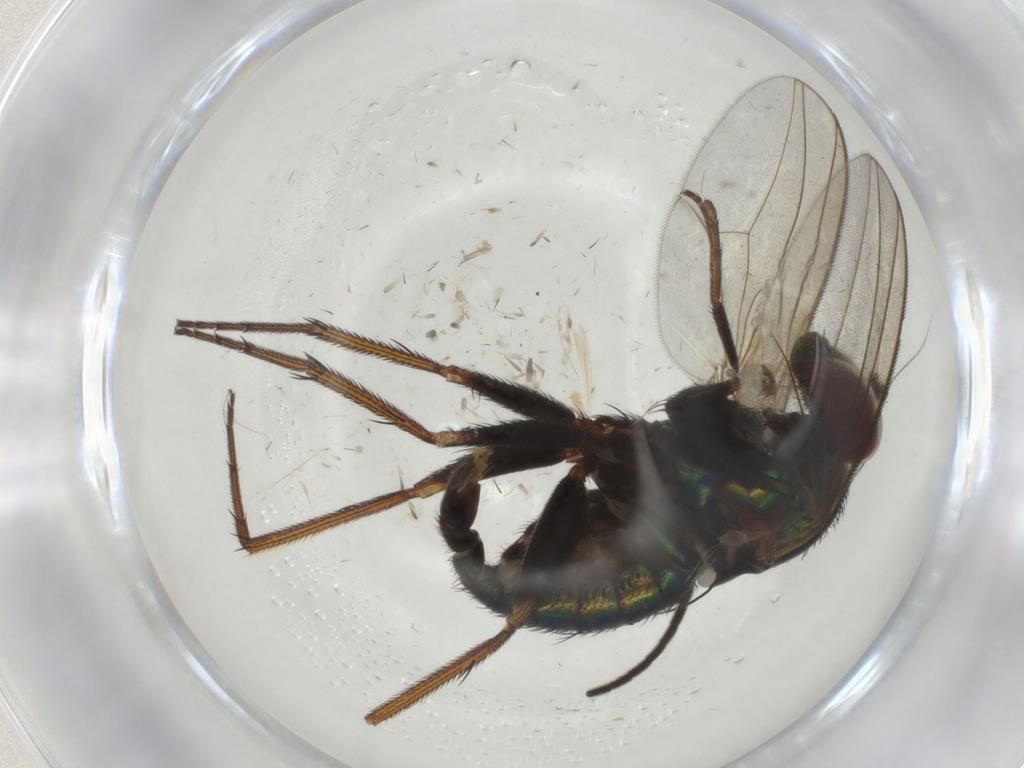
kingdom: Animalia
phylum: Arthropoda
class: Insecta
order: Diptera
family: Dolichopodidae
